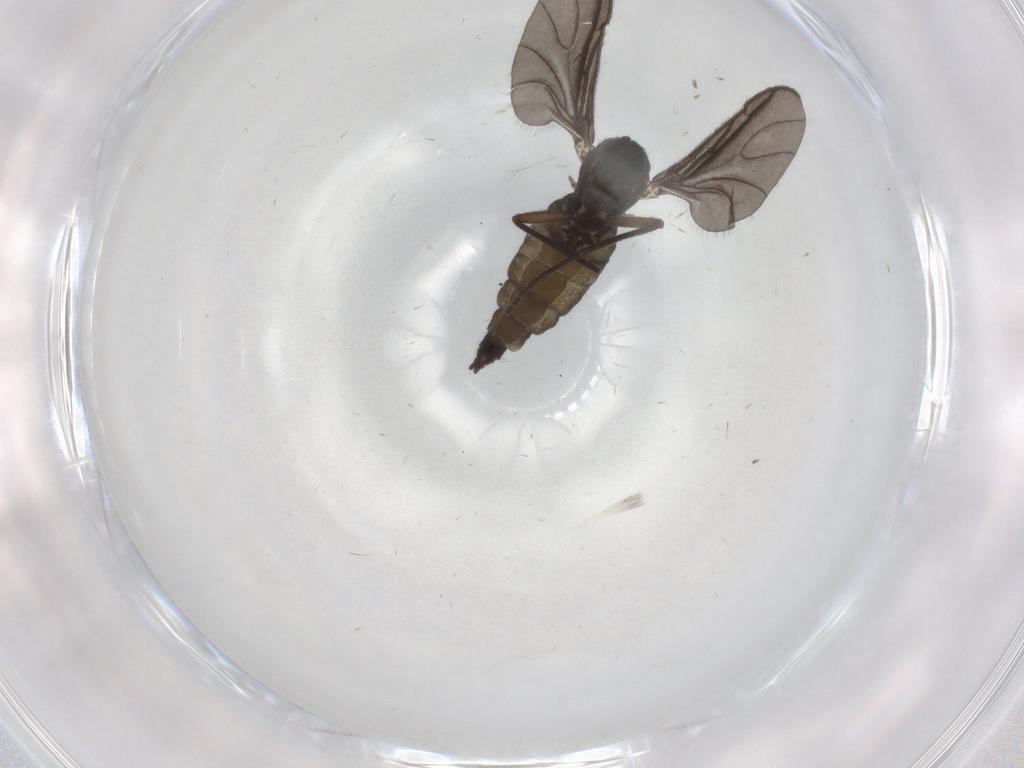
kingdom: Animalia
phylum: Arthropoda
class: Insecta
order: Diptera
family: Sciaridae
